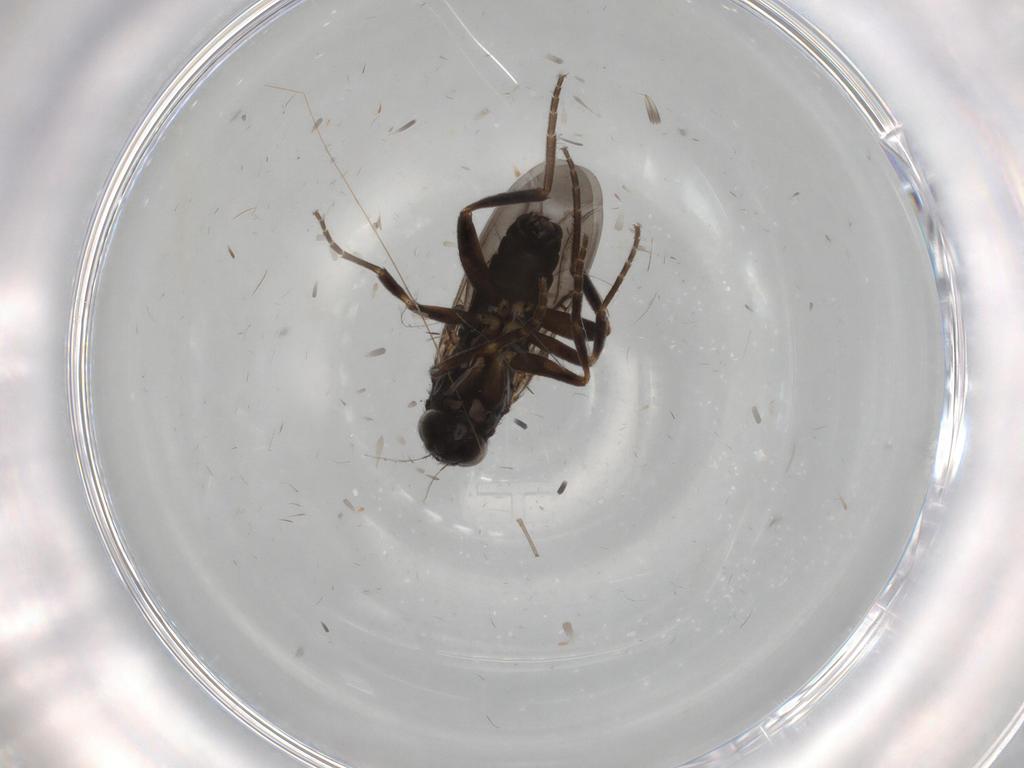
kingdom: Animalia
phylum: Arthropoda
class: Insecta
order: Diptera
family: Chironomidae
